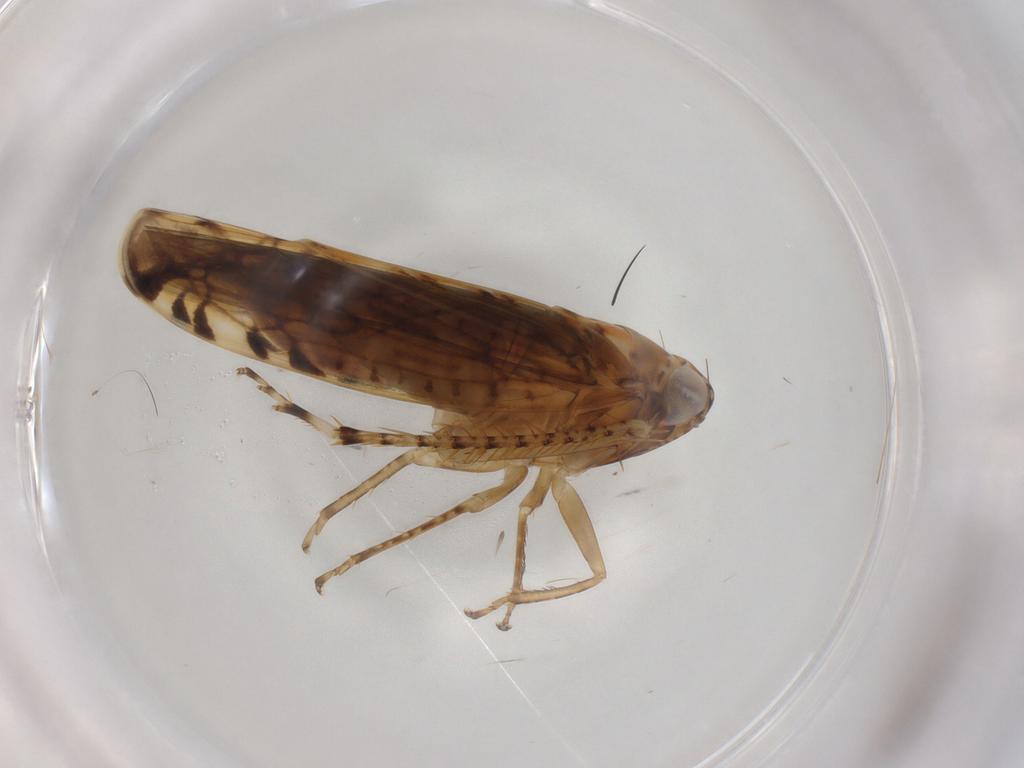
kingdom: Animalia
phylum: Arthropoda
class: Insecta
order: Hemiptera
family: Cicadellidae
